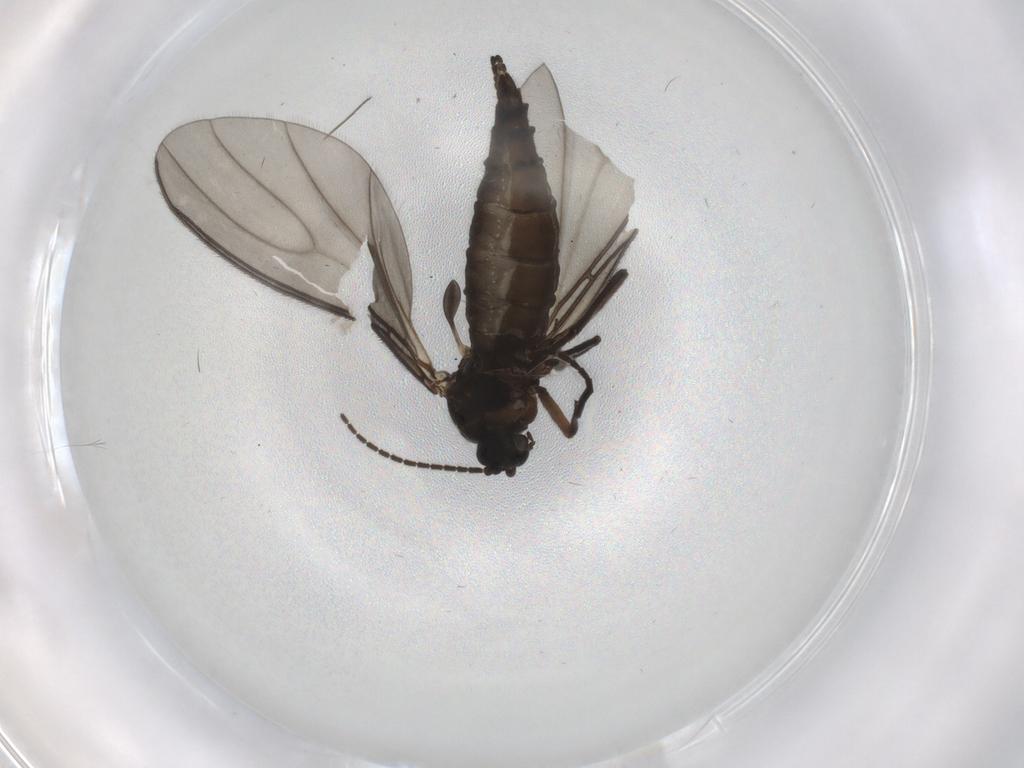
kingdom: Animalia
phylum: Arthropoda
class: Insecta
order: Diptera
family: Sciaridae
